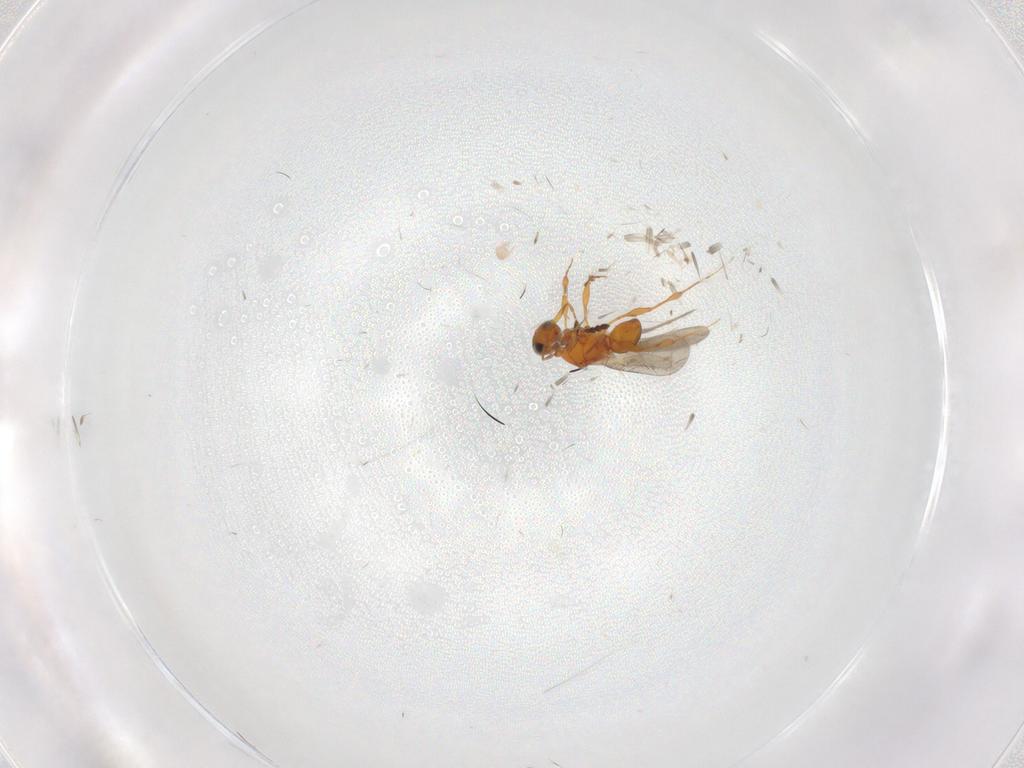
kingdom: Animalia
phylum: Arthropoda
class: Insecta
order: Hymenoptera
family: Platygastridae
